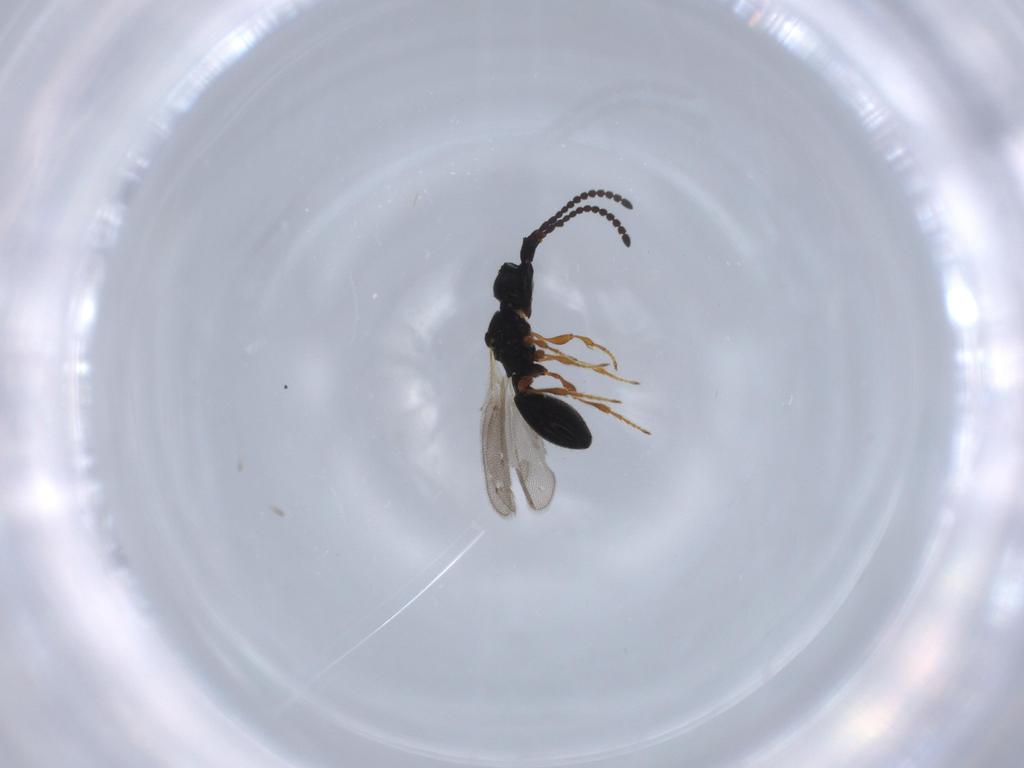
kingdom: Animalia
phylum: Arthropoda
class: Insecta
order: Hymenoptera
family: Diapriidae
